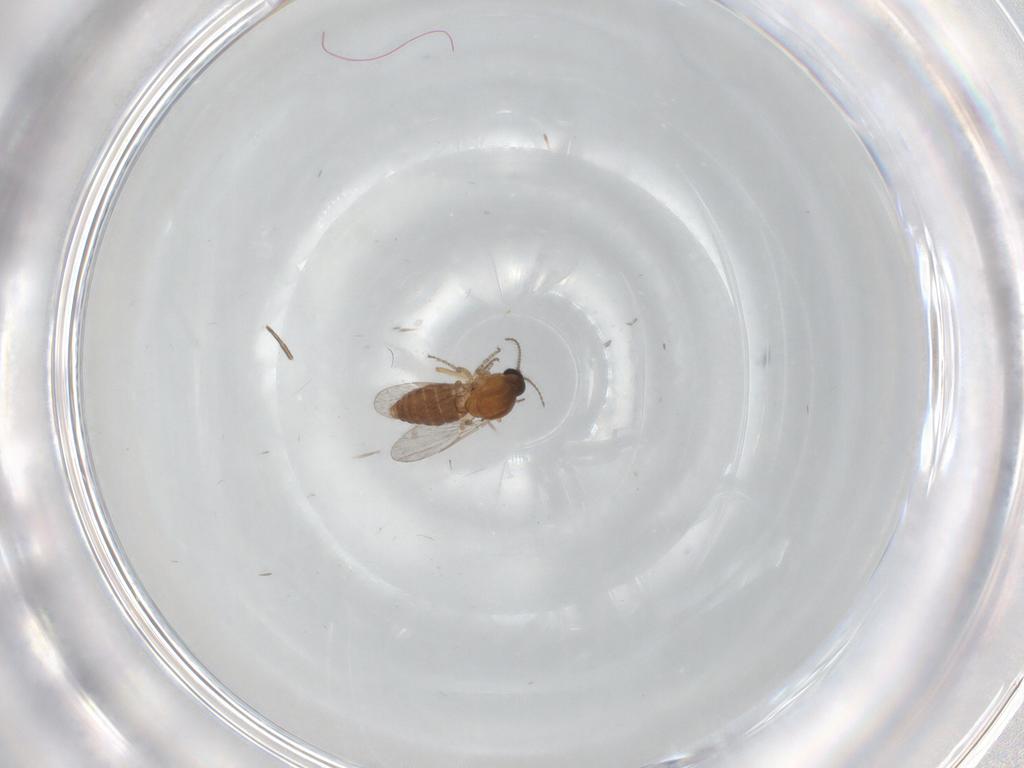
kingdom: Animalia
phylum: Arthropoda
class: Insecta
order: Diptera
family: Ceratopogonidae
